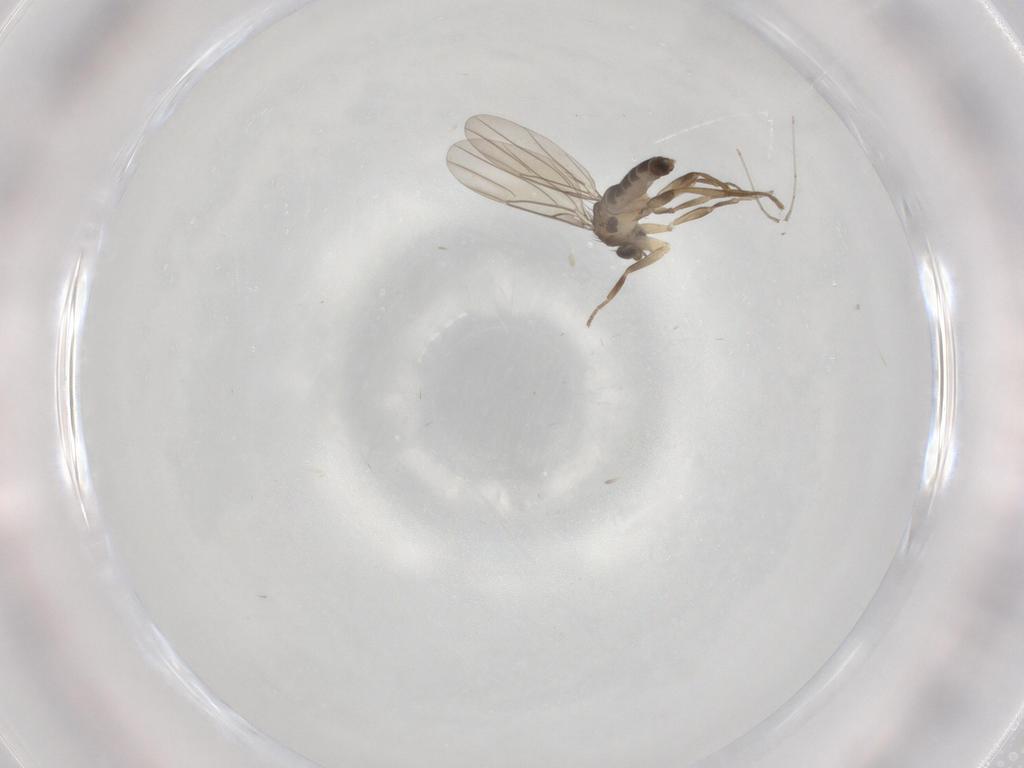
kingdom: Animalia
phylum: Arthropoda
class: Insecta
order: Diptera
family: Phoridae
